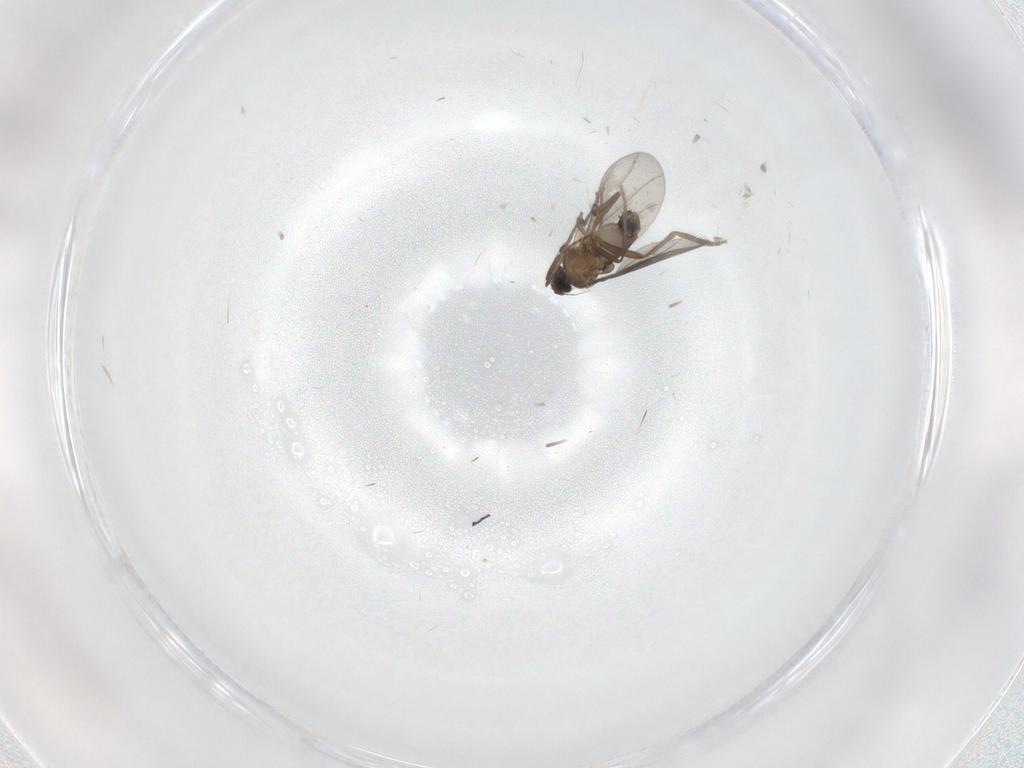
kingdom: Animalia
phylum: Arthropoda
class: Insecta
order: Diptera
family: Phoridae
